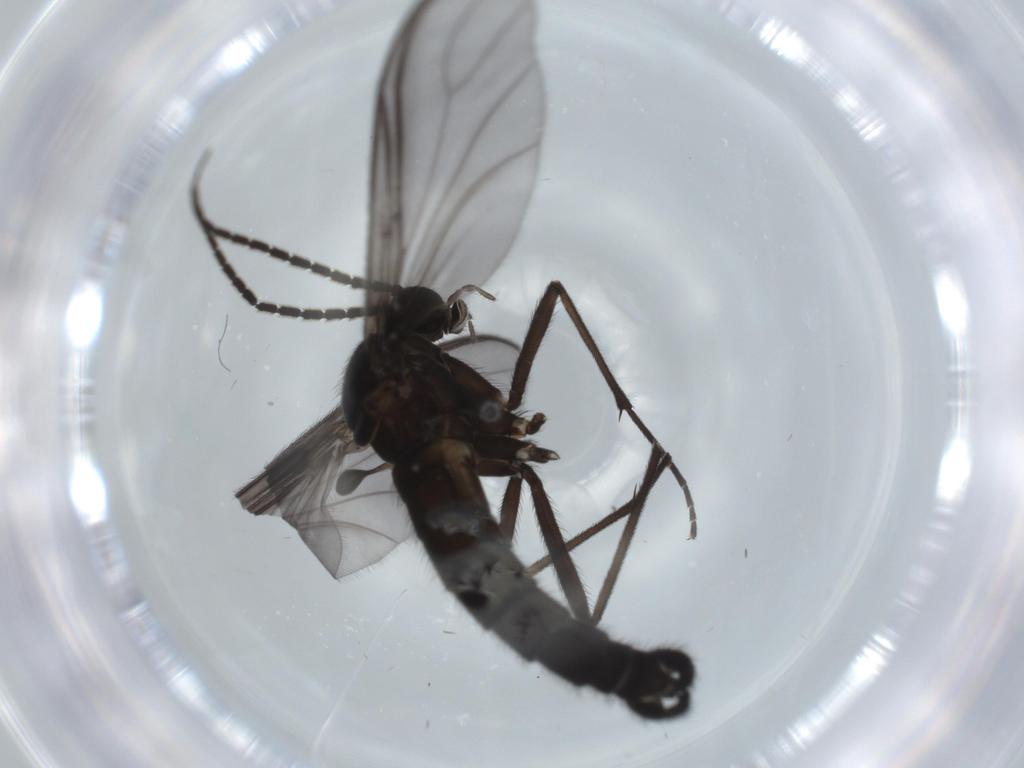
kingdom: Animalia
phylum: Arthropoda
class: Insecta
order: Diptera
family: Sciaridae
